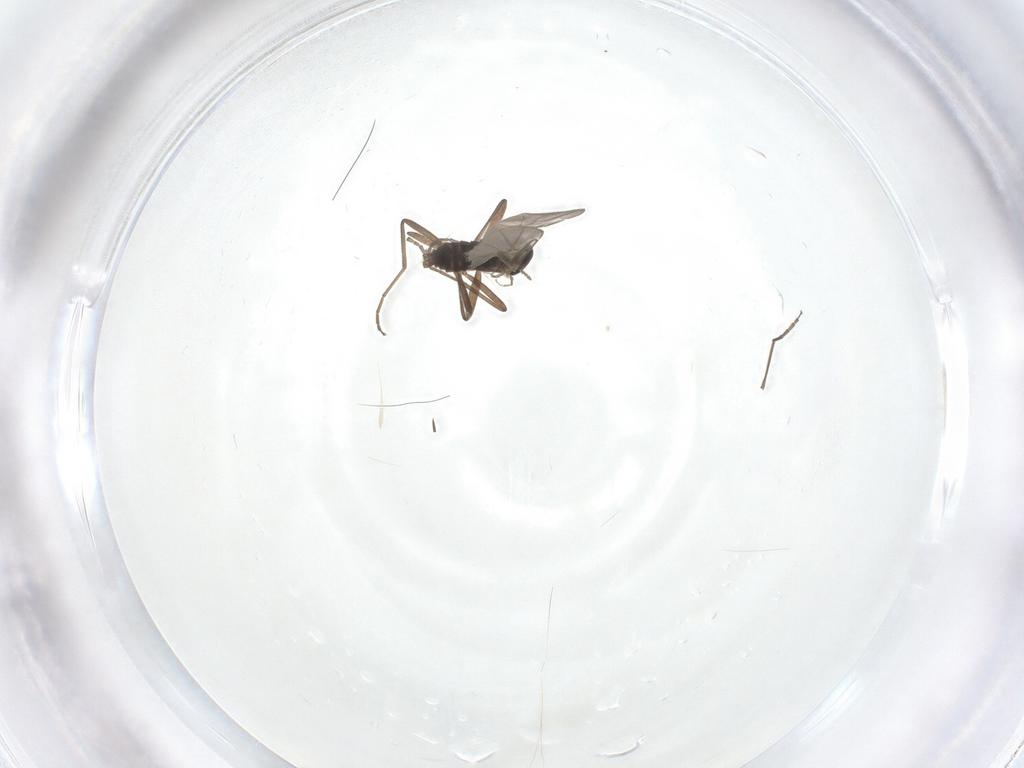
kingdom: Animalia
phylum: Arthropoda
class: Insecta
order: Diptera
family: Cecidomyiidae
